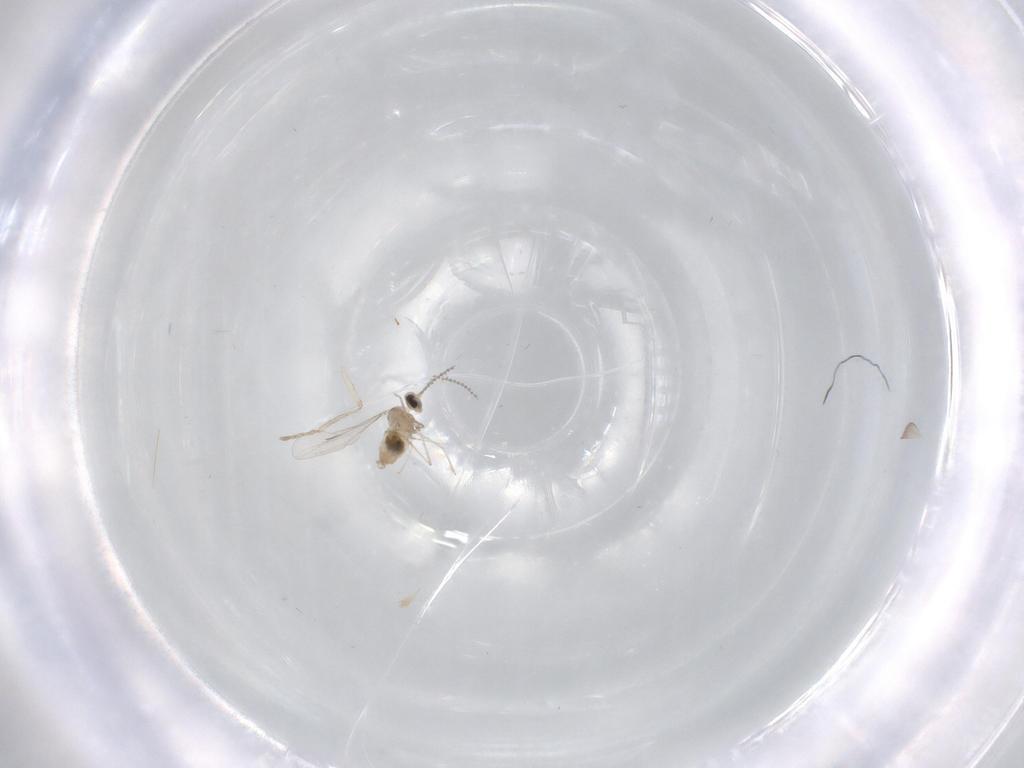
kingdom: Animalia
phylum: Arthropoda
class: Insecta
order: Diptera
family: Cecidomyiidae
